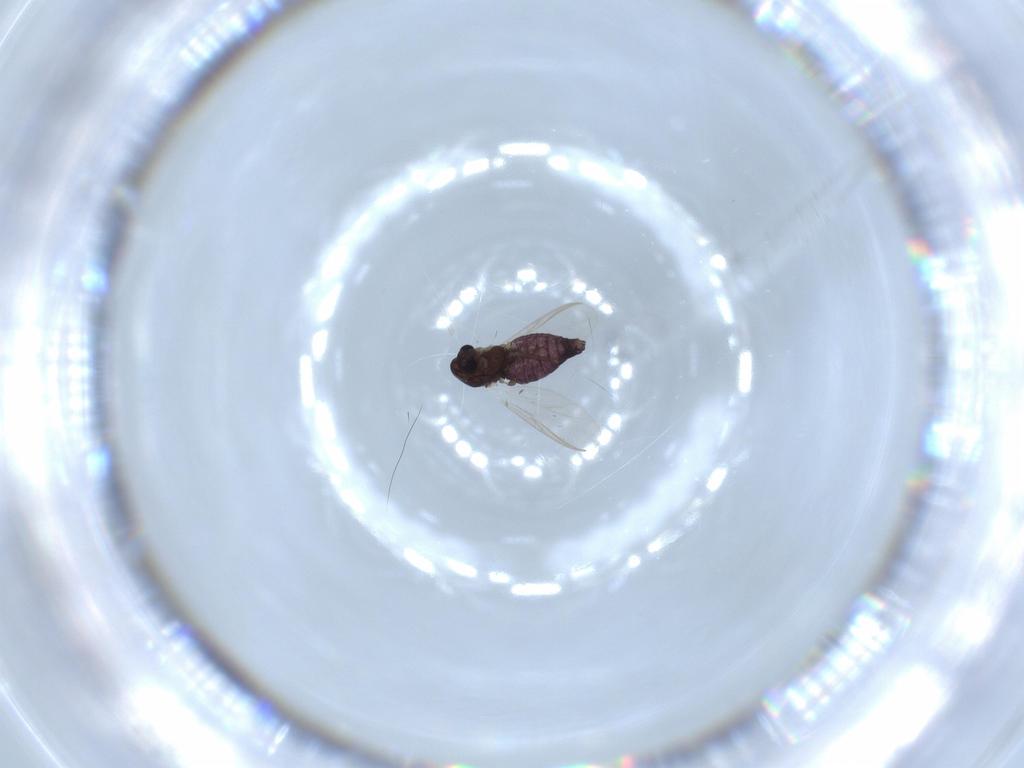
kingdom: Animalia
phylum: Arthropoda
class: Insecta
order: Diptera
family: Chironomidae
